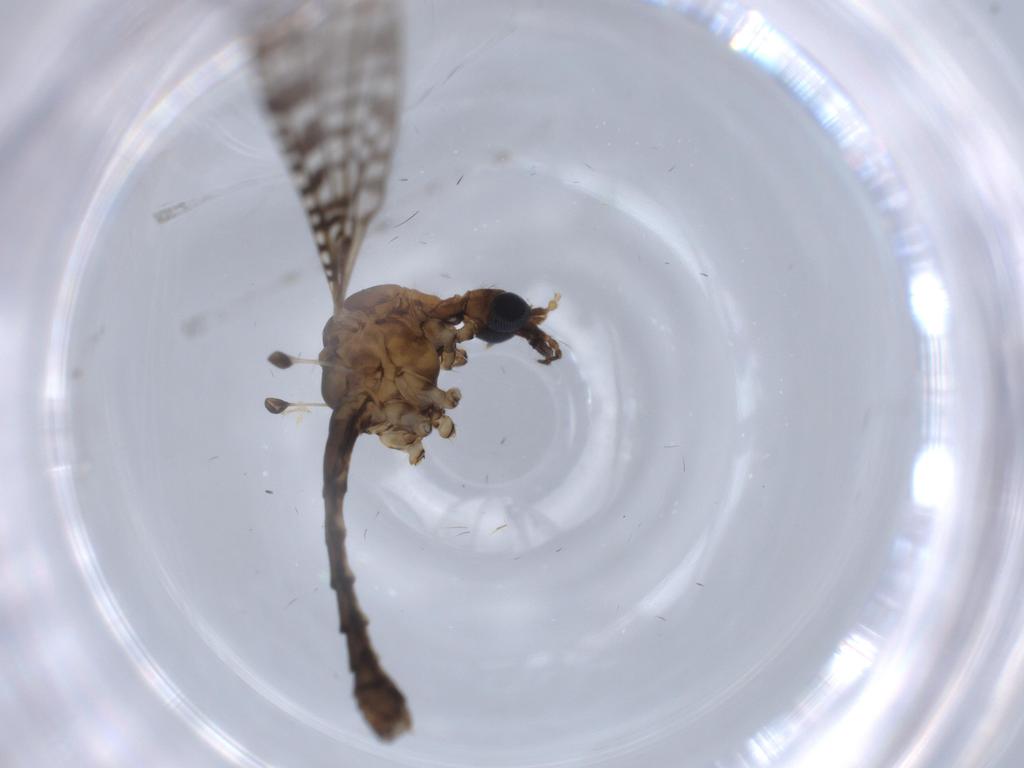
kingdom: Animalia
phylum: Arthropoda
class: Insecta
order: Diptera
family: Limoniidae
